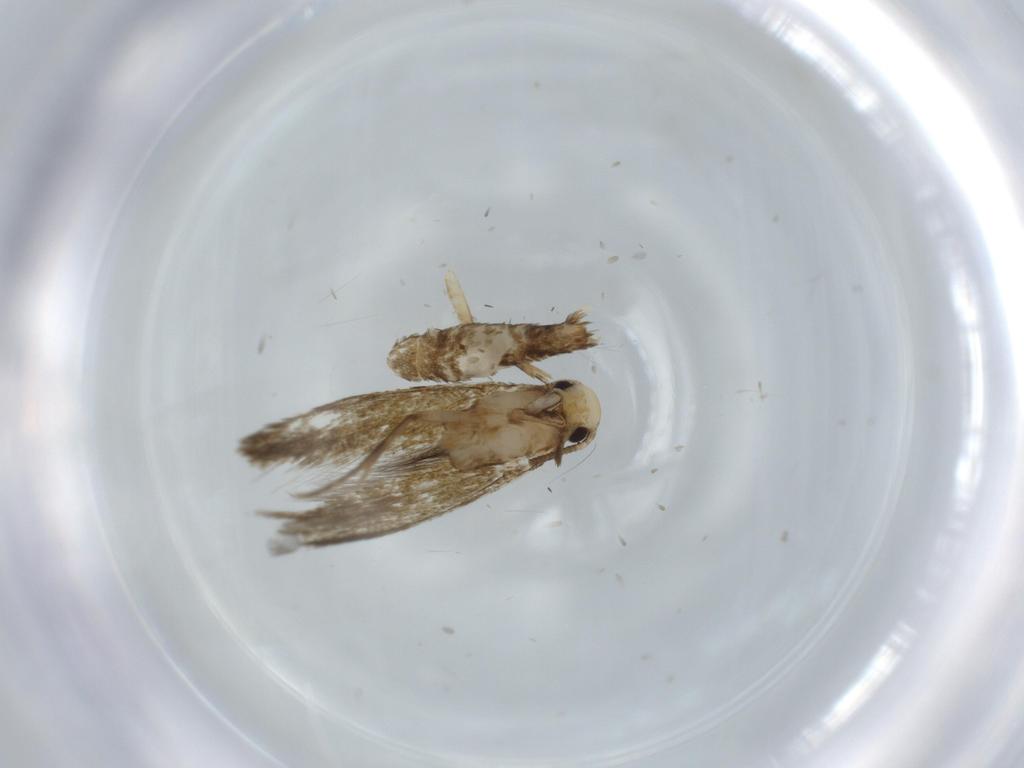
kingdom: Animalia
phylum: Arthropoda
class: Insecta
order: Lepidoptera
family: Tineidae
